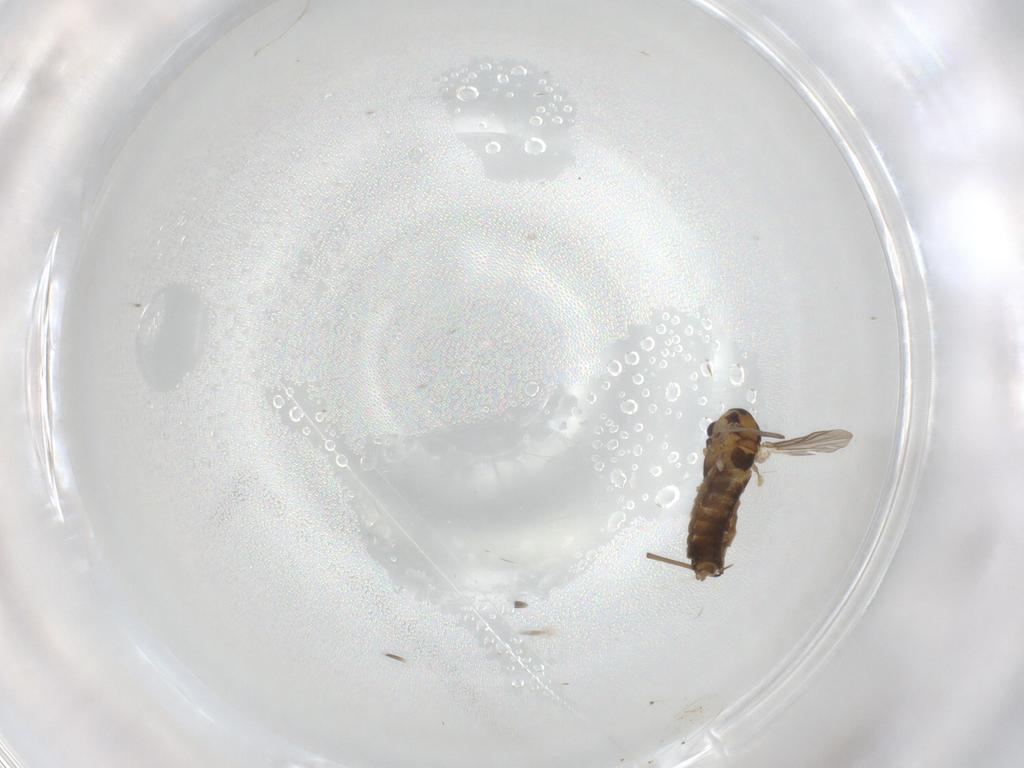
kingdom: Animalia
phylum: Arthropoda
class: Insecta
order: Diptera
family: Chironomidae
